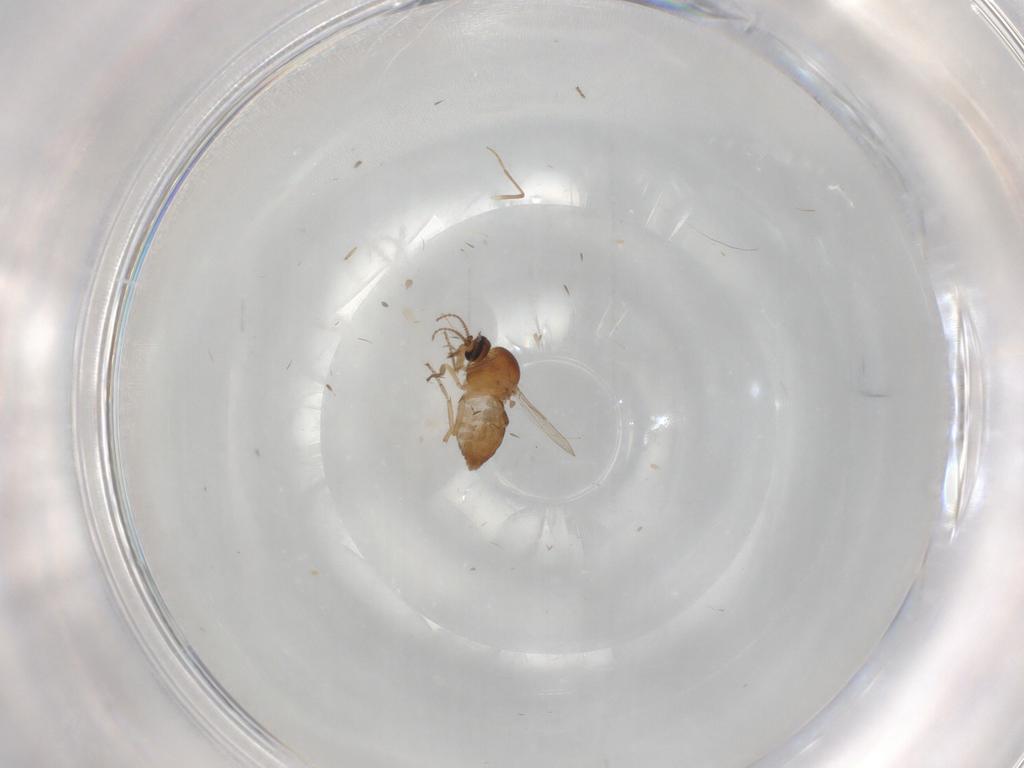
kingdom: Animalia
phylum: Arthropoda
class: Insecta
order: Diptera
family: Ceratopogonidae
